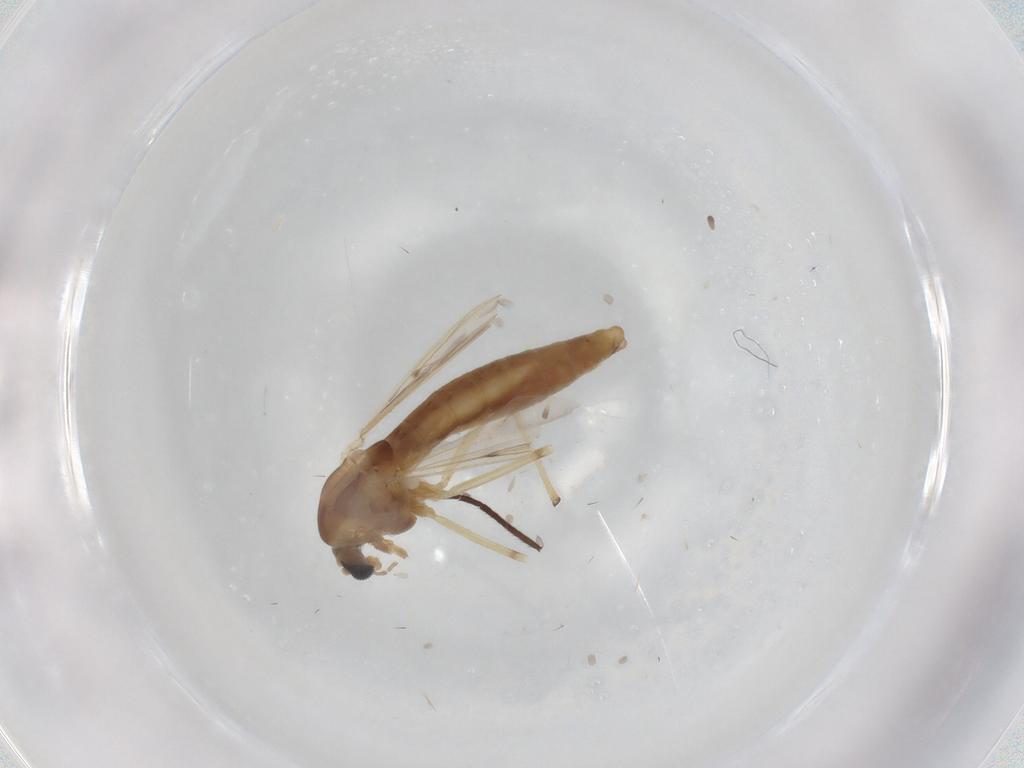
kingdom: Animalia
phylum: Arthropoda
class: Insecta
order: Diptera
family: Chironomidae
